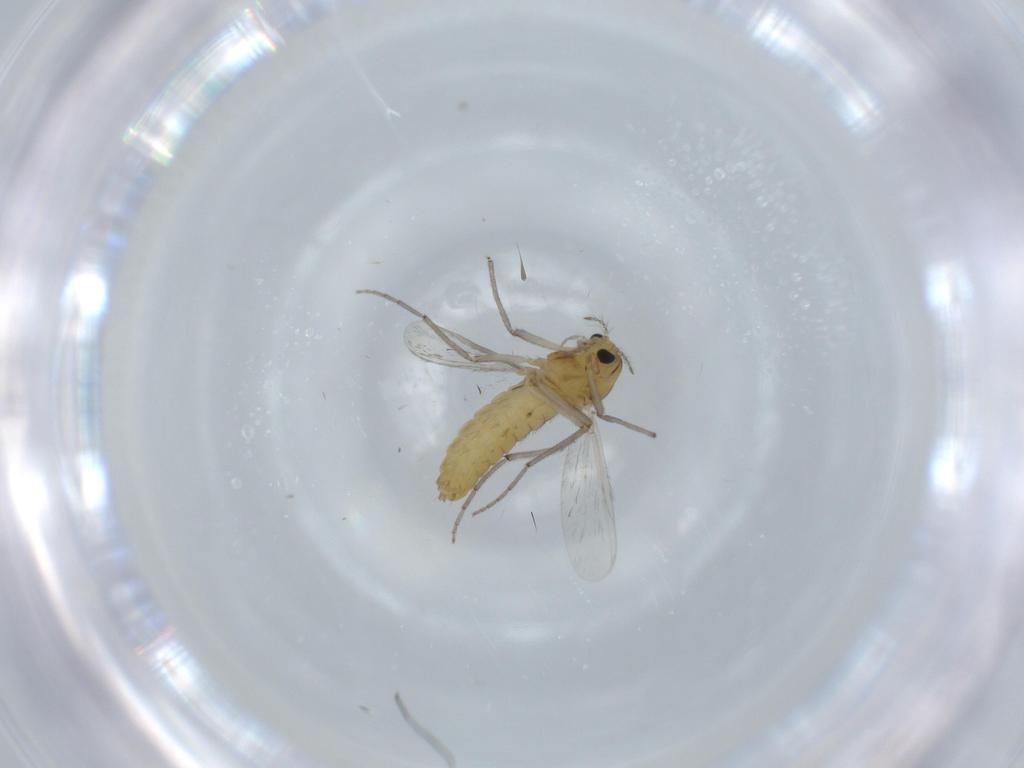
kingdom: Animalia
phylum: Arthropoda
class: Insecta
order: Diptera
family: Chironomidae
